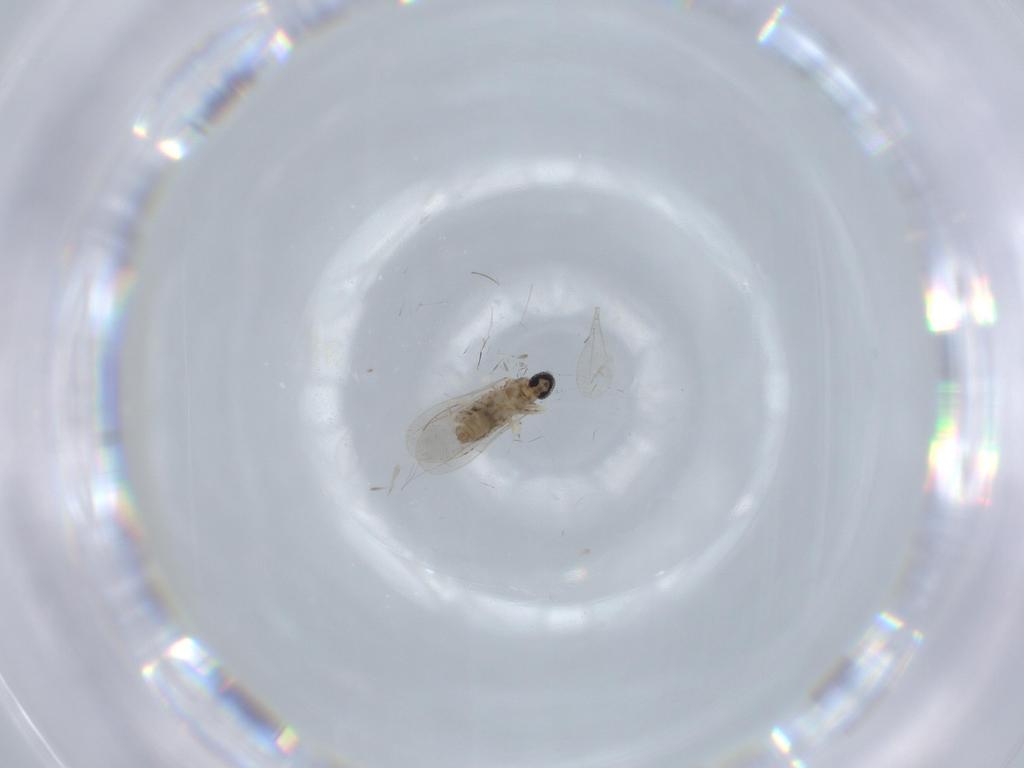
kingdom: Animalia
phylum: Arthropoda
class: Insecta
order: Diptera
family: Cecidomyiidae
